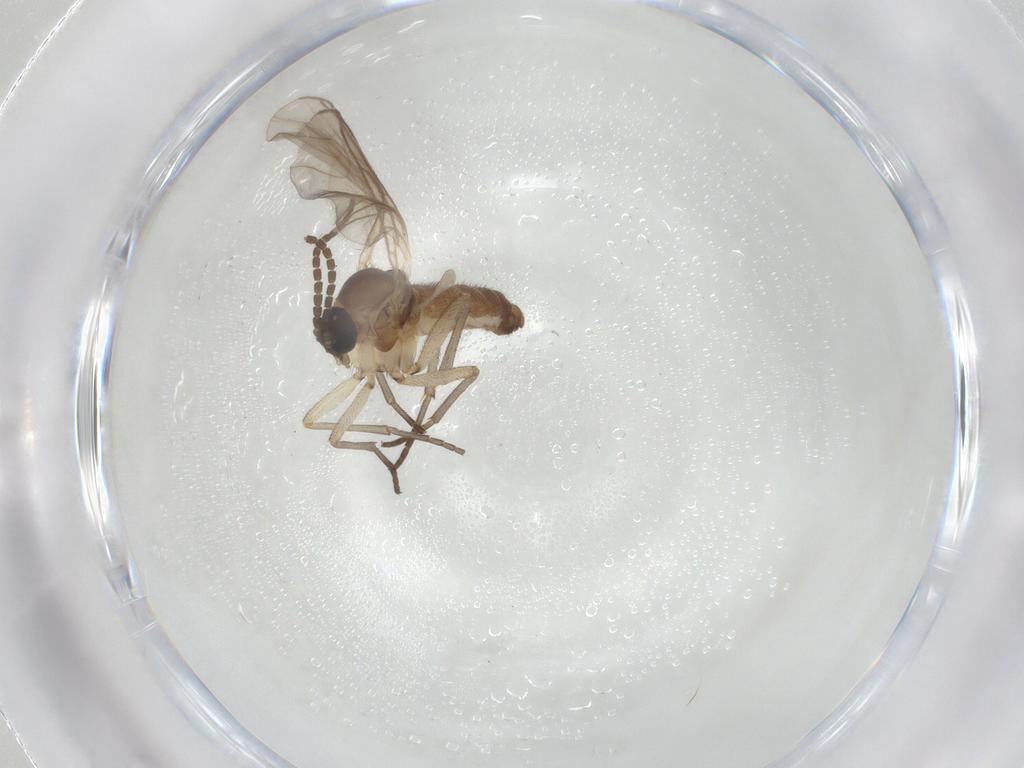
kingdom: Animalia
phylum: Arthropoda
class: Insecta
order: Diptera
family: Sciaridae
